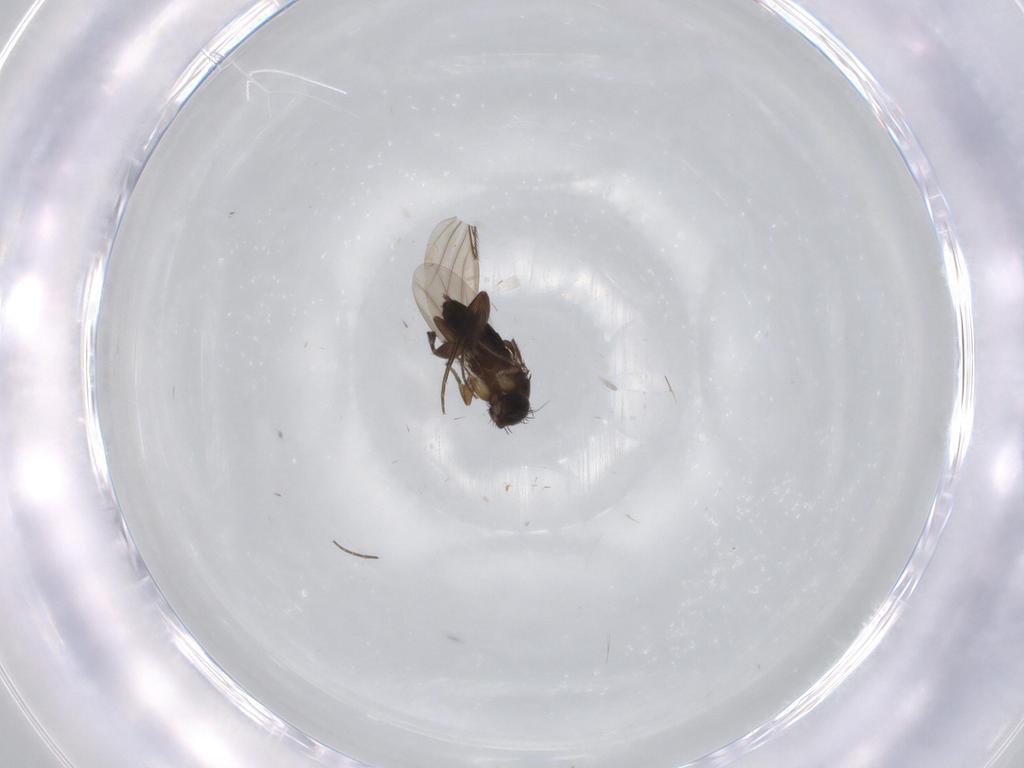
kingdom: Animalia
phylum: Arthropoda
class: Insecta
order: Diptera
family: Phoridae
